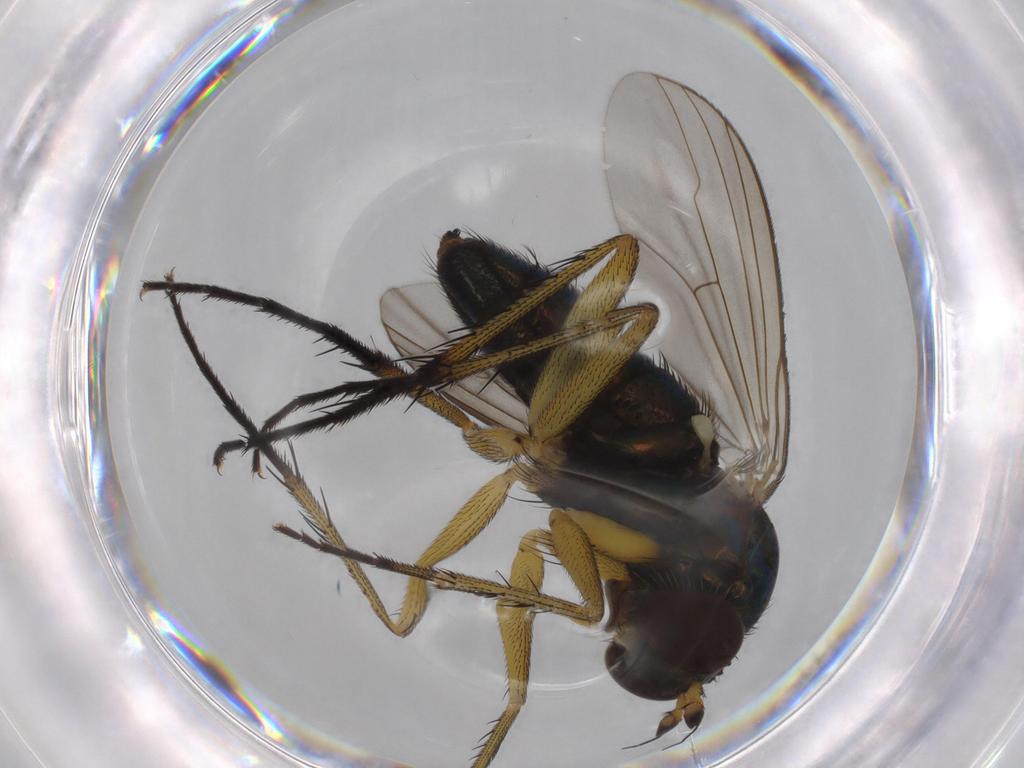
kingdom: Animalia
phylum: Arthropoda
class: Insecta
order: Diptera
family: Dolichopodidae
